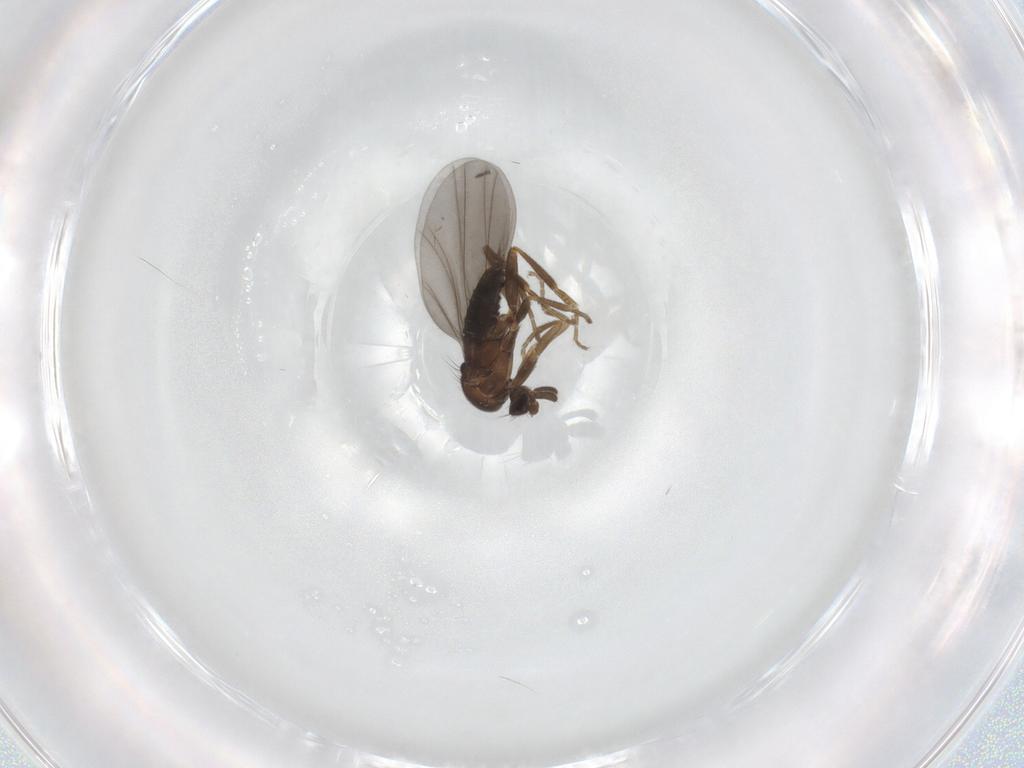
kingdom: Animalia
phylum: Arthropoda
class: Insecta
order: Diptera
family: Phoridae
